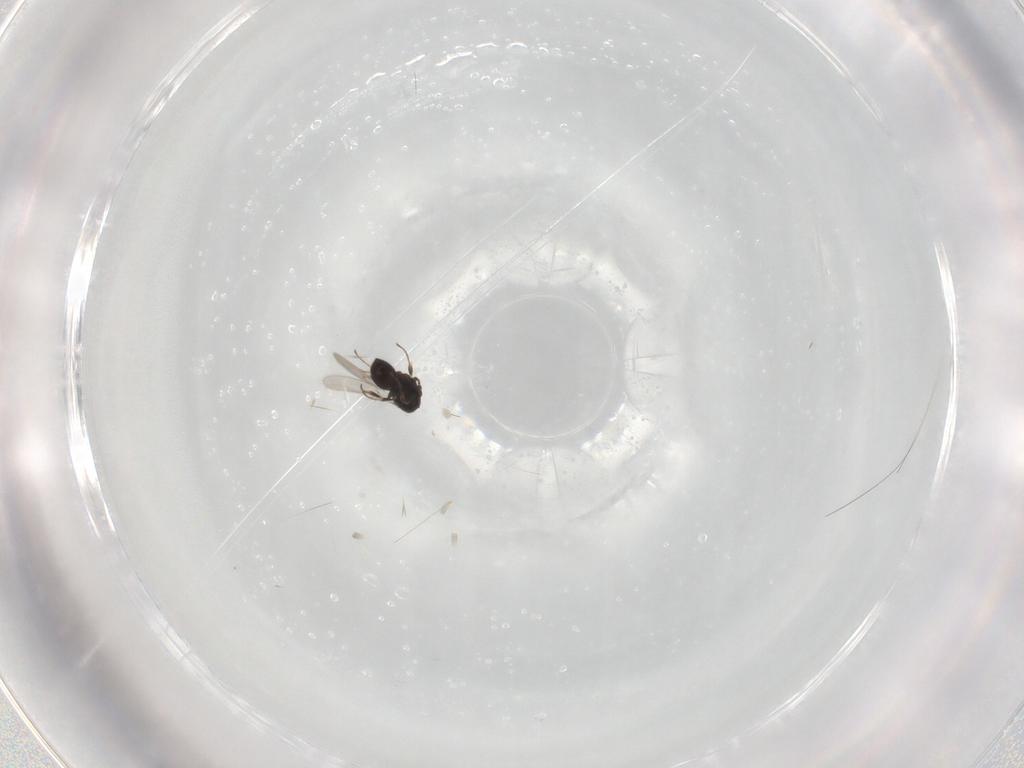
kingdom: Animalia
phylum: Arthropoda
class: Insecta
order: Hymenoptera
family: Scelionidae
